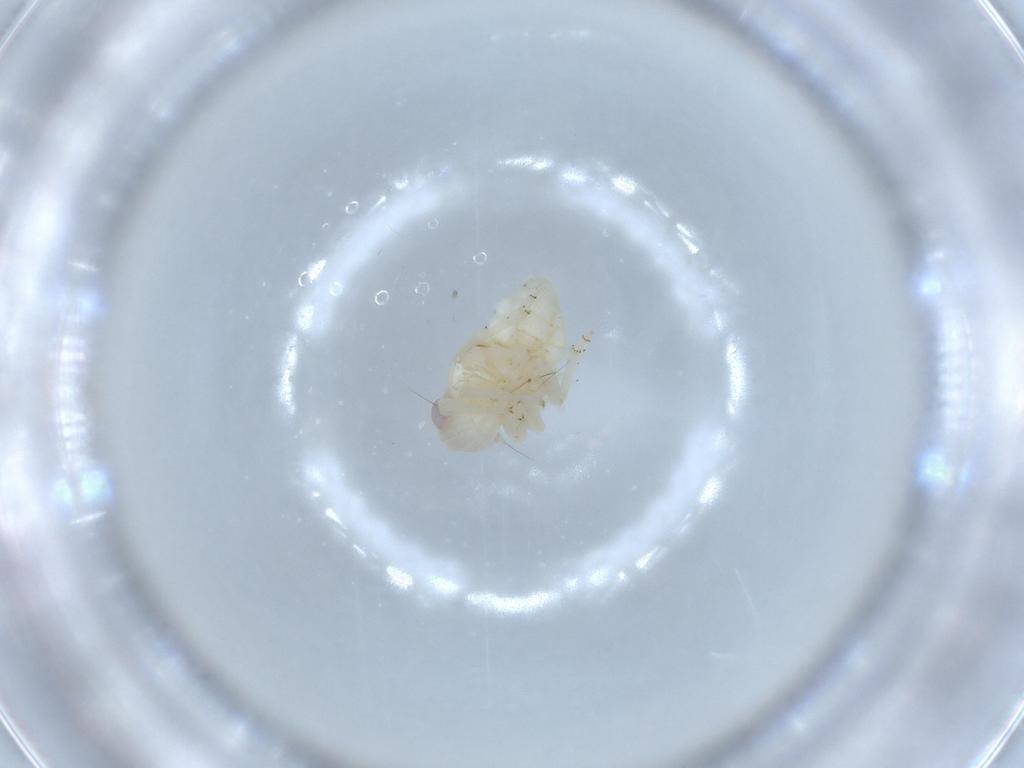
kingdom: Animalia
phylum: Arthropoda
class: Insecta
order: Hemiptera
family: Nogodinidae
